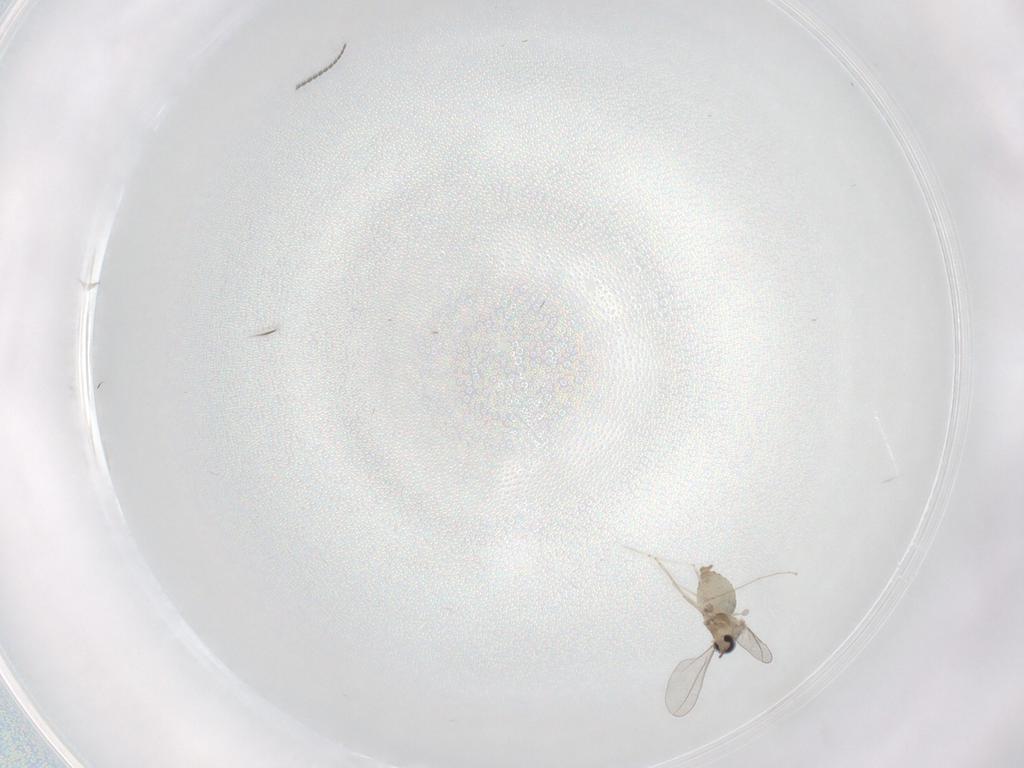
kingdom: Animalia
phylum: Arthropoda
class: Insecta
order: Diptera
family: Cecidomyiidae
